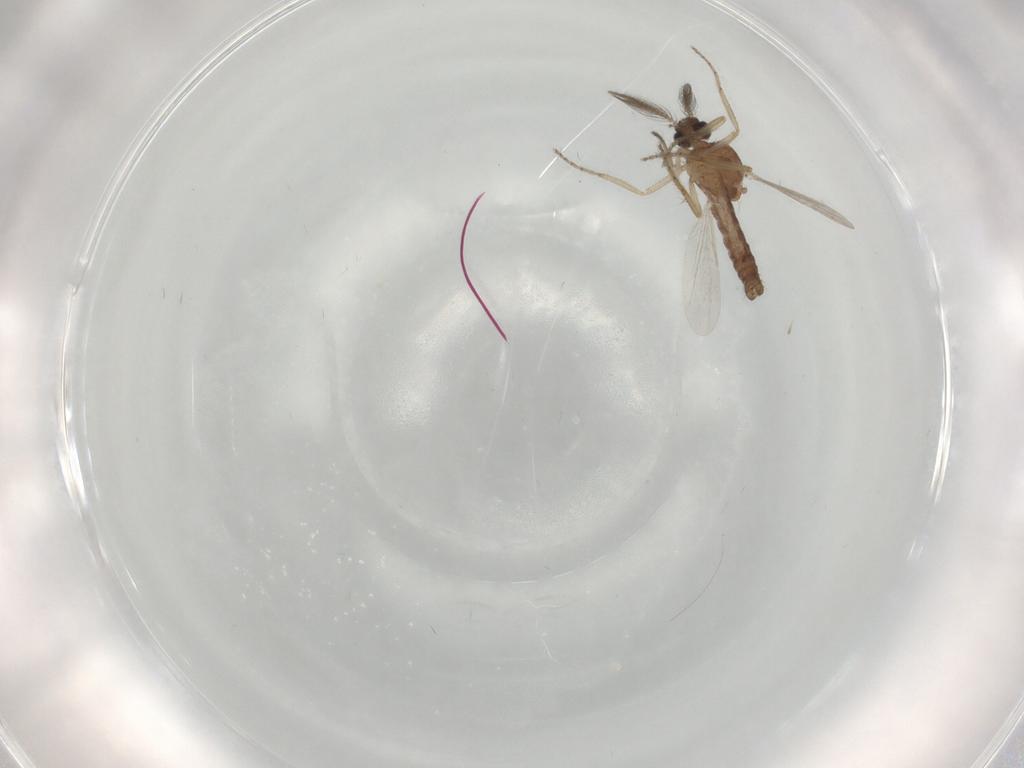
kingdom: Animalia
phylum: Arthropoda
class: Insecta
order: Diptera
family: Ceratopogonidae
